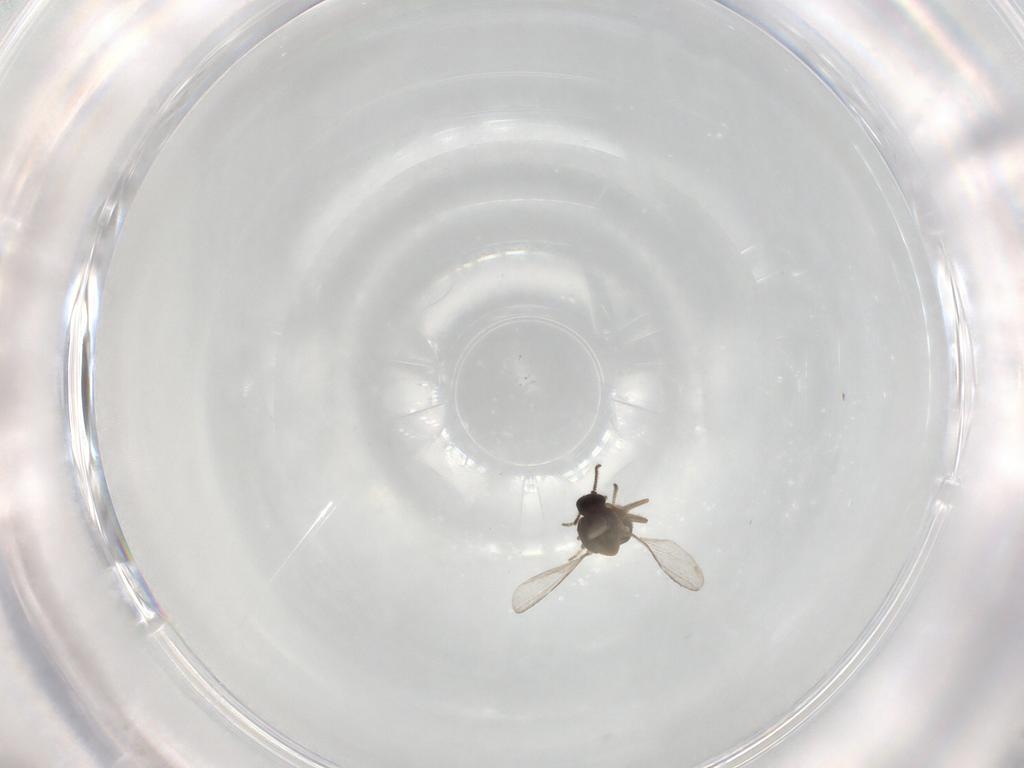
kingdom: Animalia
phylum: Arthropoda
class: Insecta
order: Diptera
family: Ceratopogonidae
